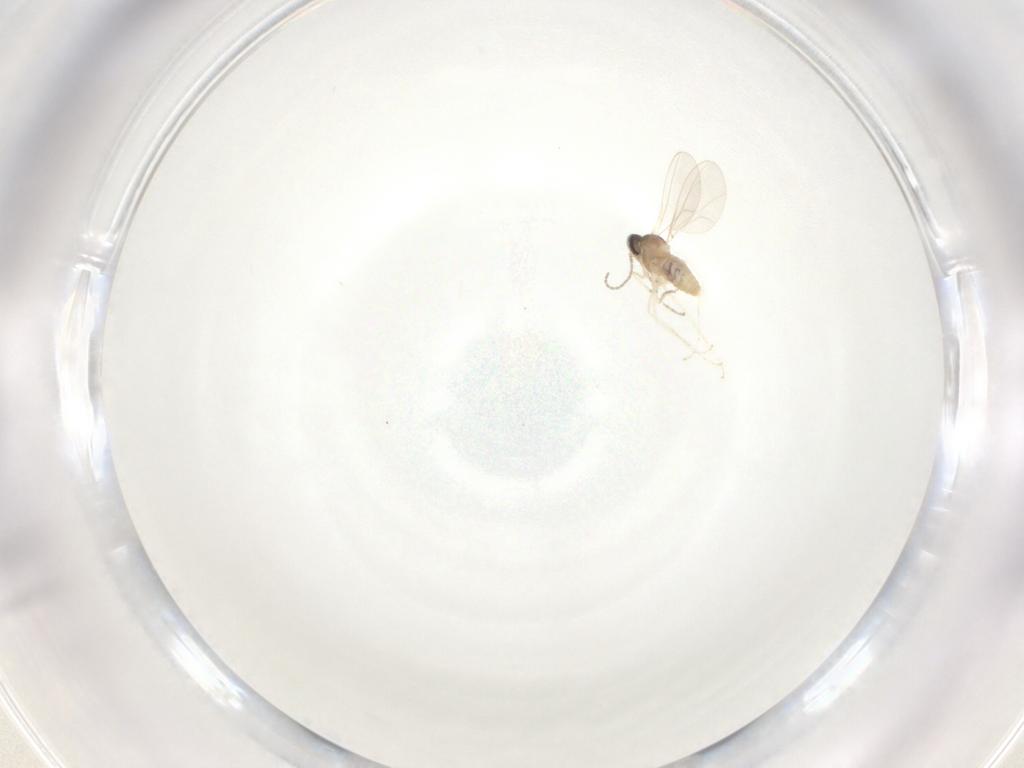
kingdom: Animalia
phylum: Arthropoda
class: Insecta
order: Diptera
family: Cecidomyiidae
